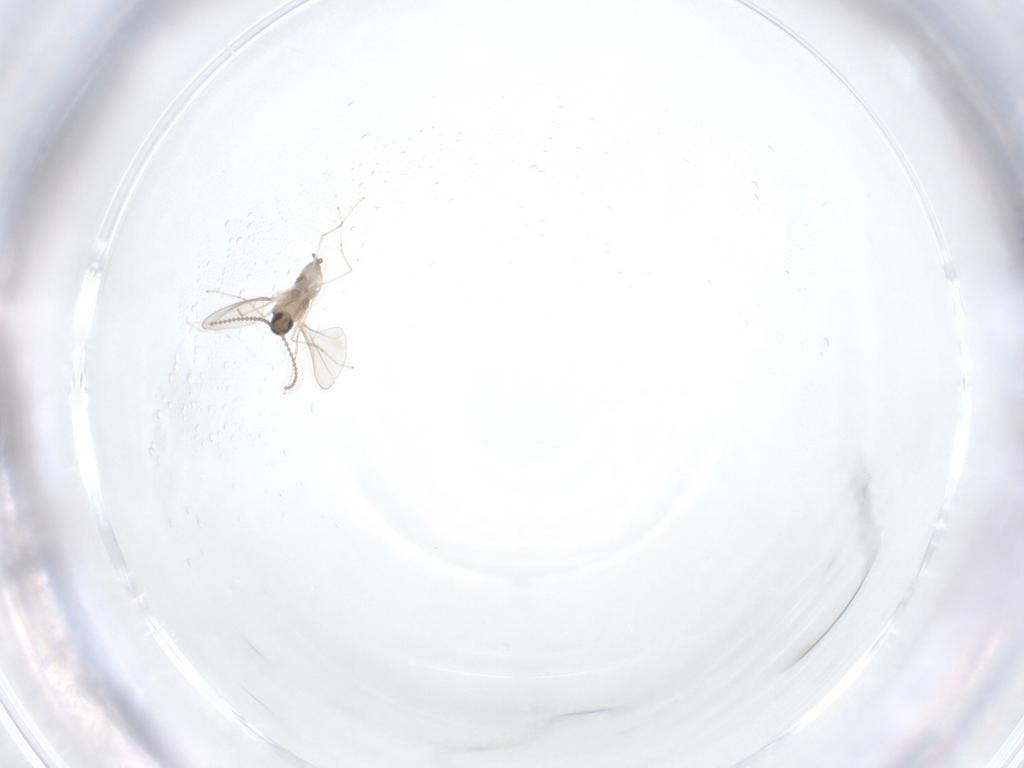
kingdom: Animalia
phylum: Arthropoda
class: Insecta
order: Diptera
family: Cecidomyiidae
